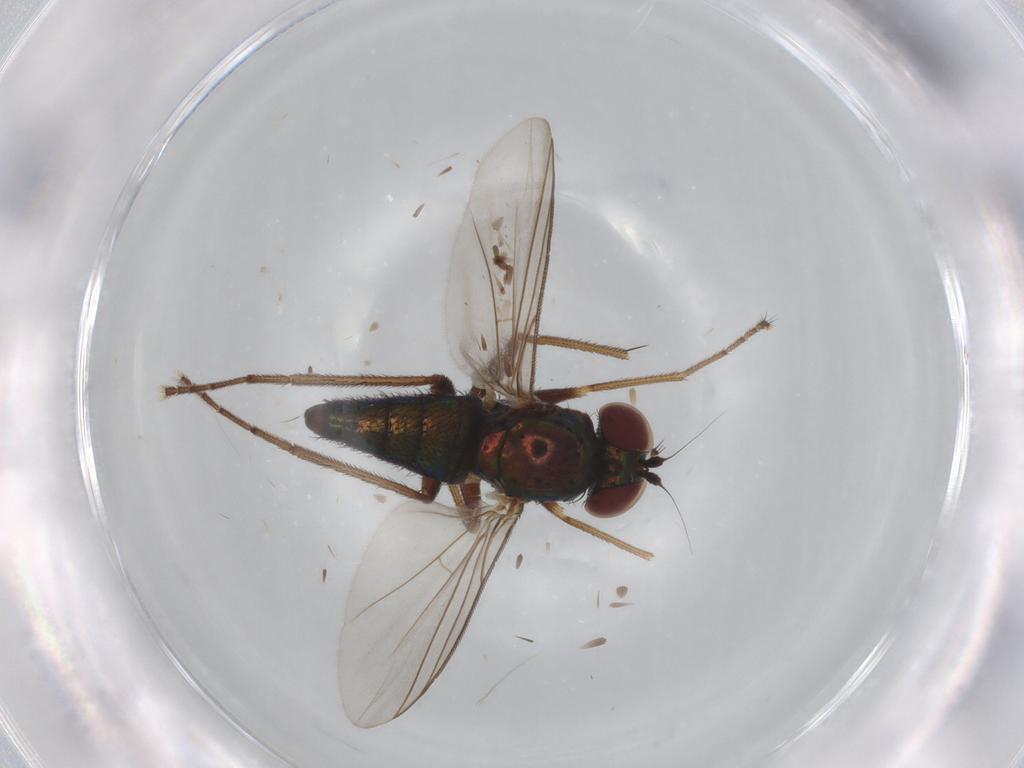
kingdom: Animalia
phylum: Arthropoda
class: Insecta
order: Diptera
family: Dolichopodidae
